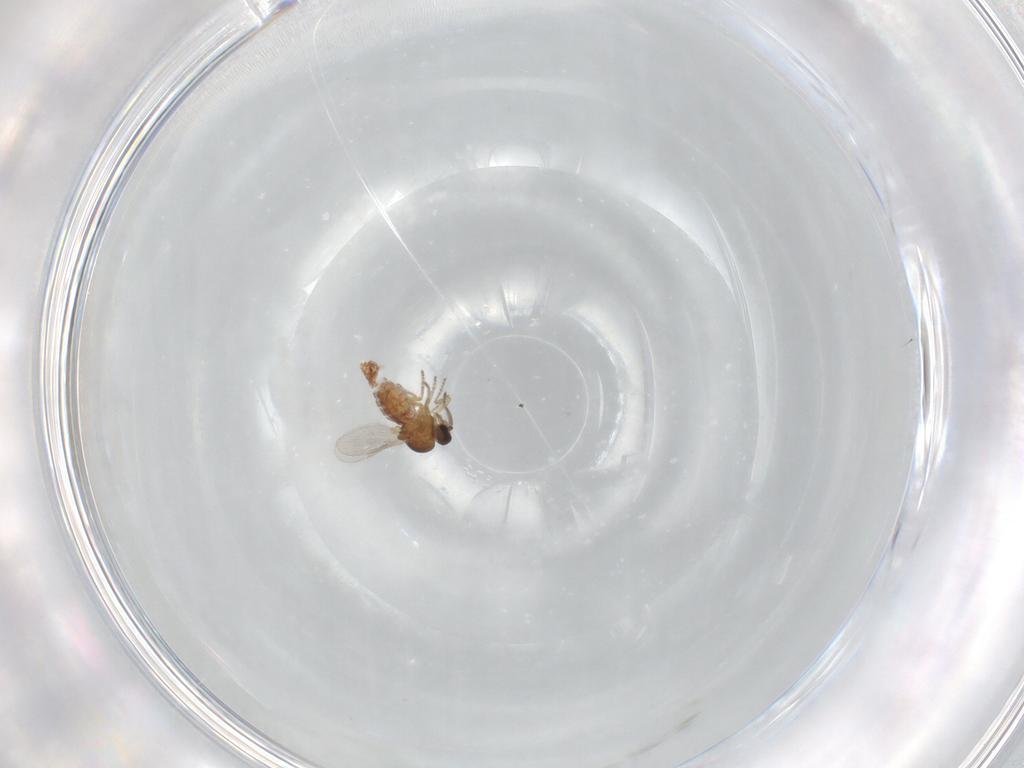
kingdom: Animalia
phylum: Arthropoda
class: Insecta
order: Diptera
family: Ceratopogonidae
